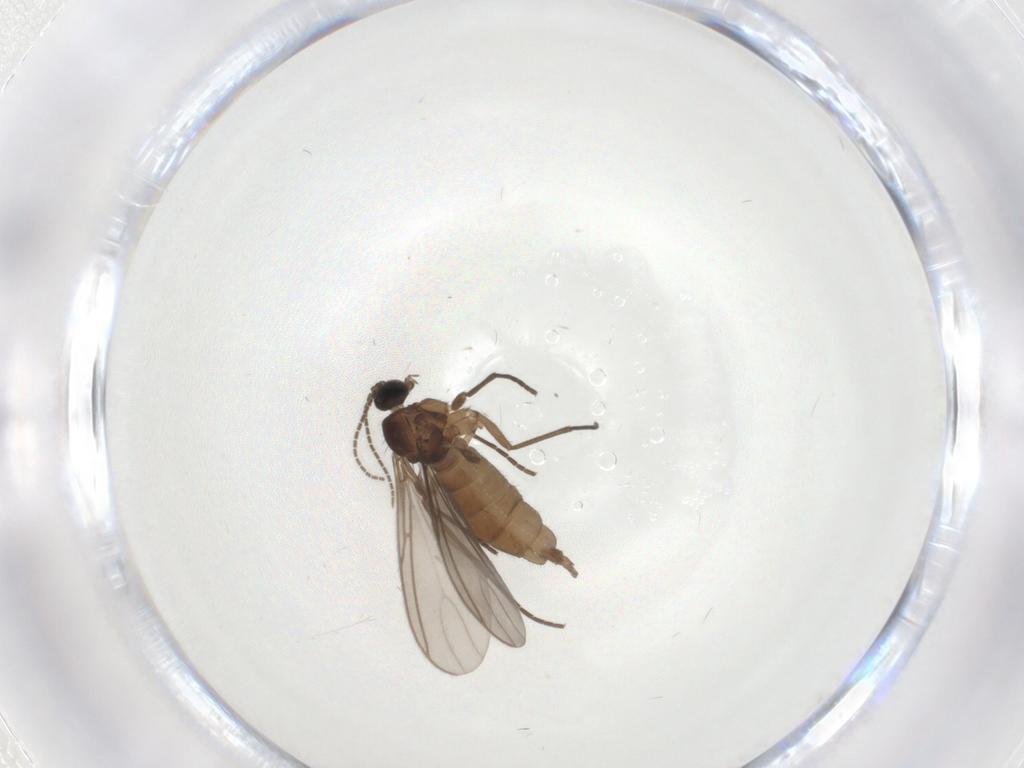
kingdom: Animalia
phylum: Arthropoda
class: Insecta
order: Diptera
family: Sciaridae
